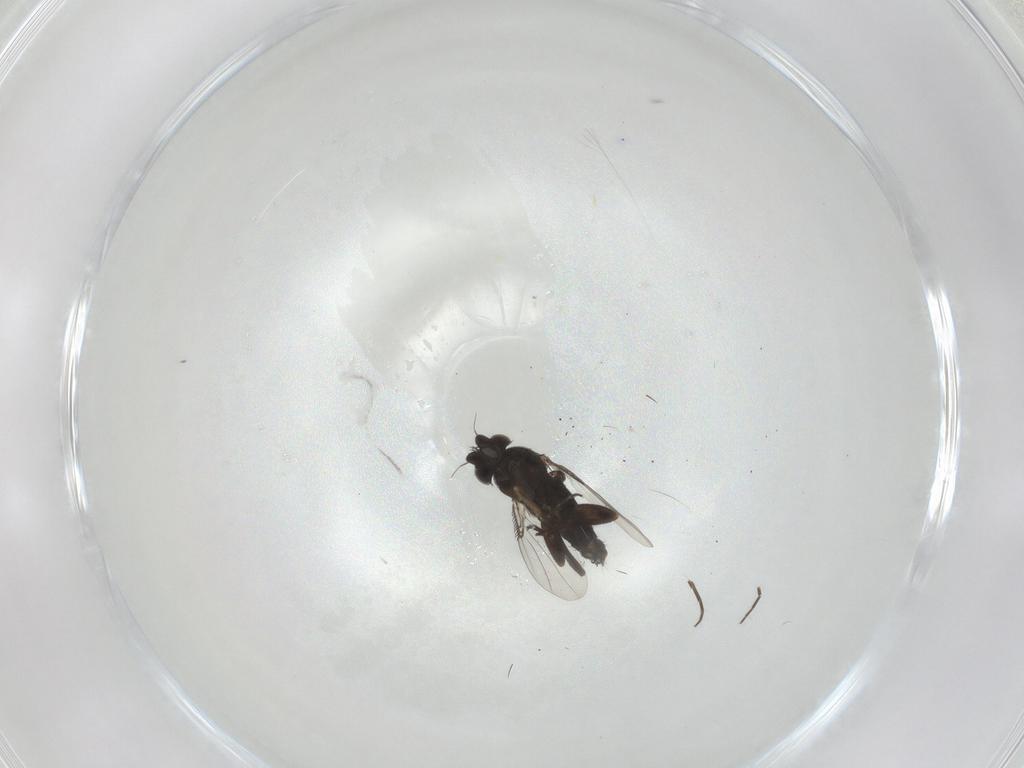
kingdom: Animalia
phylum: Arthropoda
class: Insecta
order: Diptera
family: Phoridae
